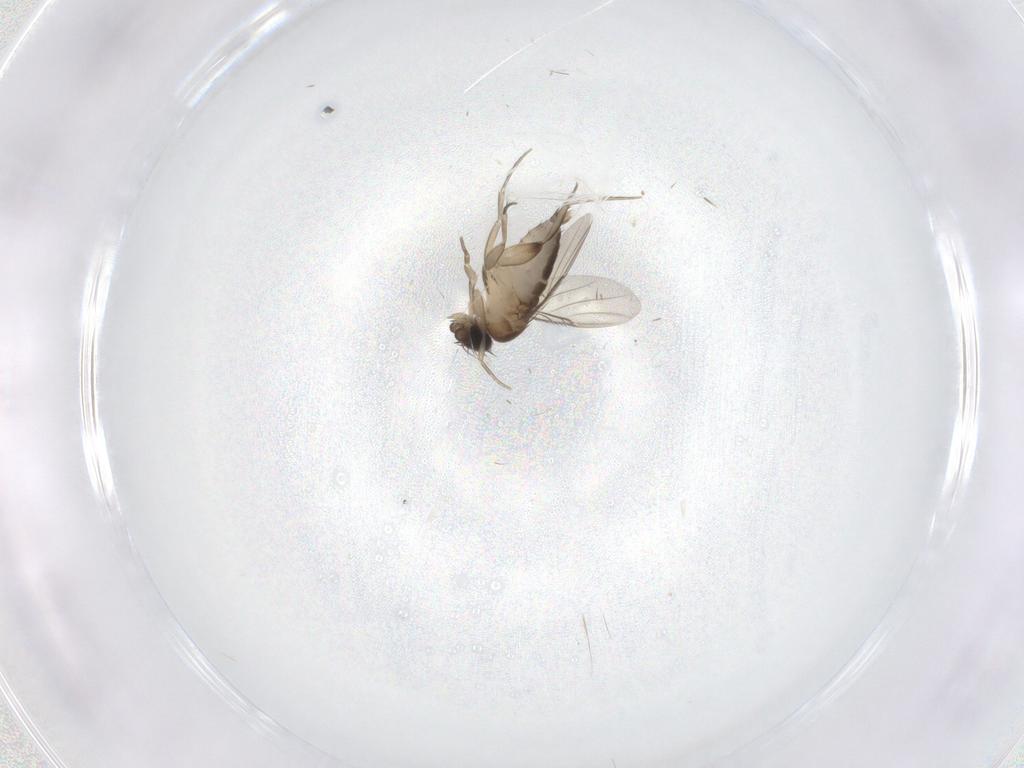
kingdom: Animalia
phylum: Arthropoda
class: Insecta
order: Diptera
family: Phoridae
